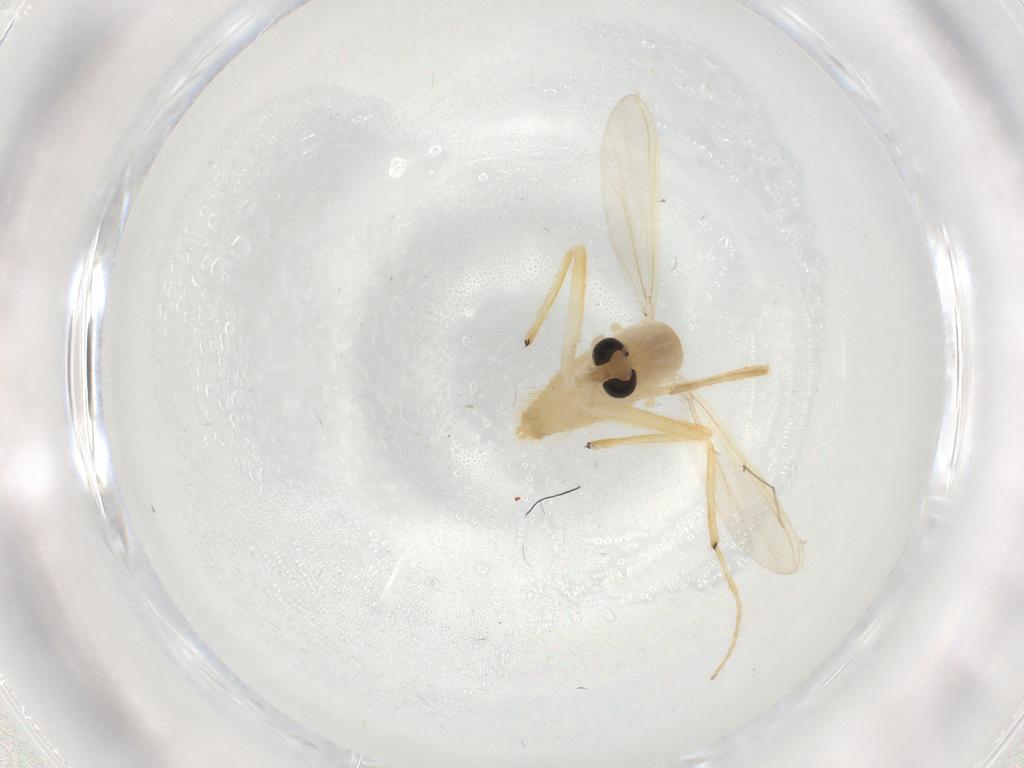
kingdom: Animalia
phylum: Arthropoda
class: Insecta
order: Diptera
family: Chironomidae
